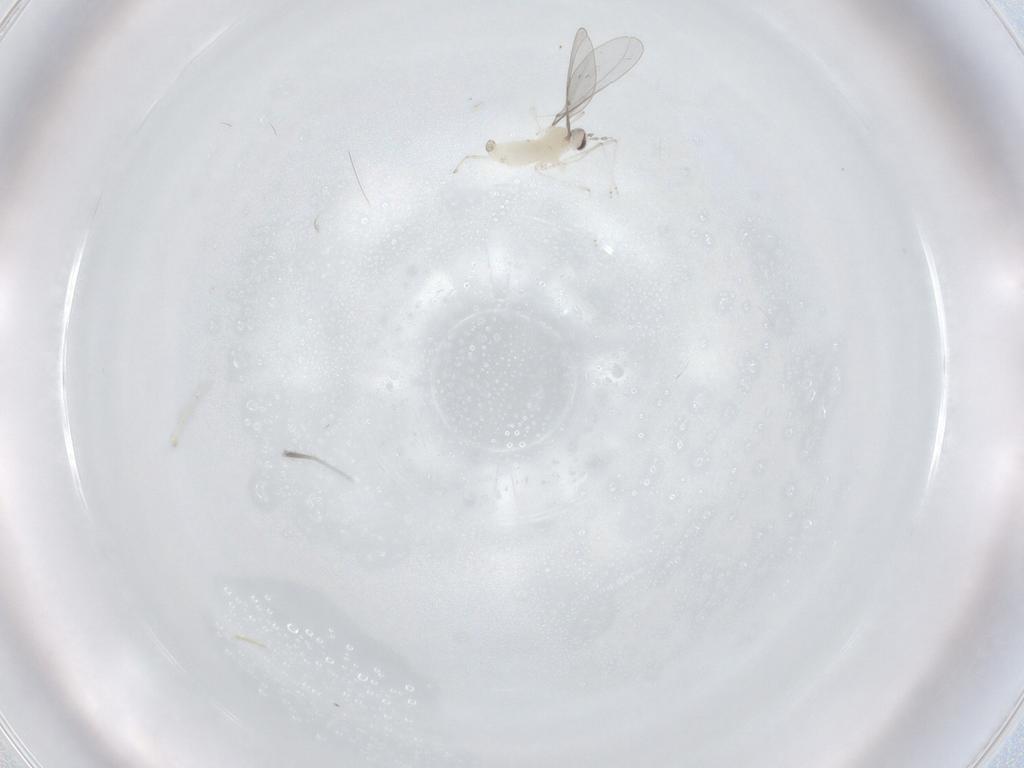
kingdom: Animalia
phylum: Arthropoda
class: Insecta
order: Diptera
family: Cecidomyiidae
